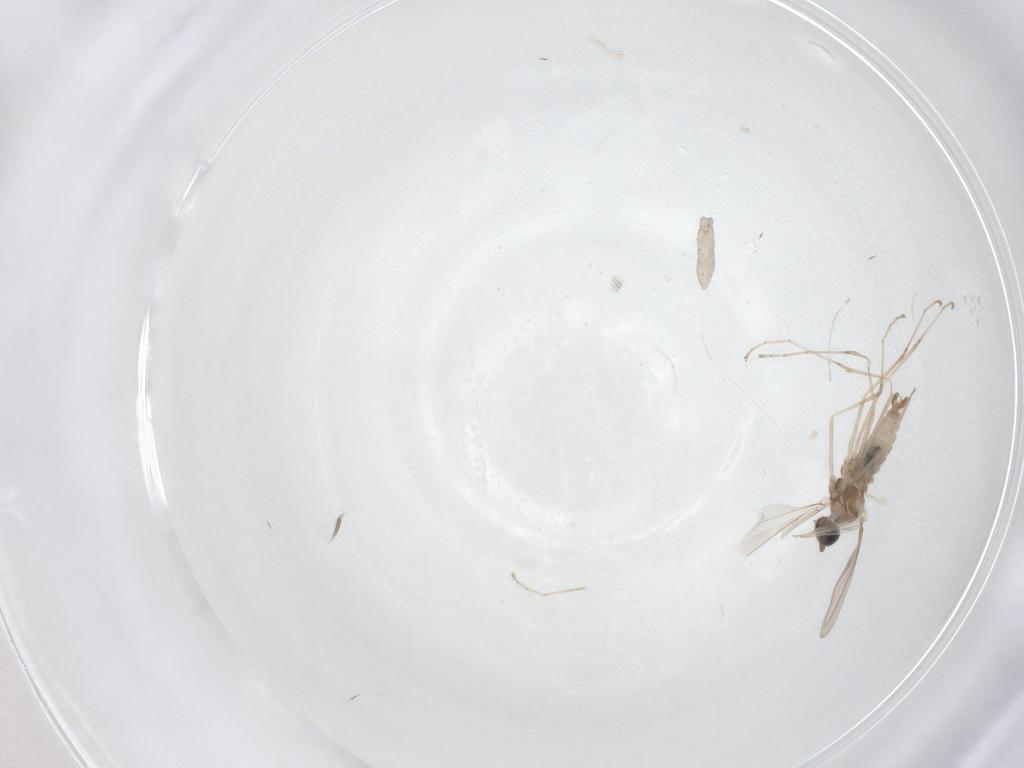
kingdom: Animalia
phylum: Arthropoda
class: Insecta
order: Diptera
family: Cecidomyiidae
